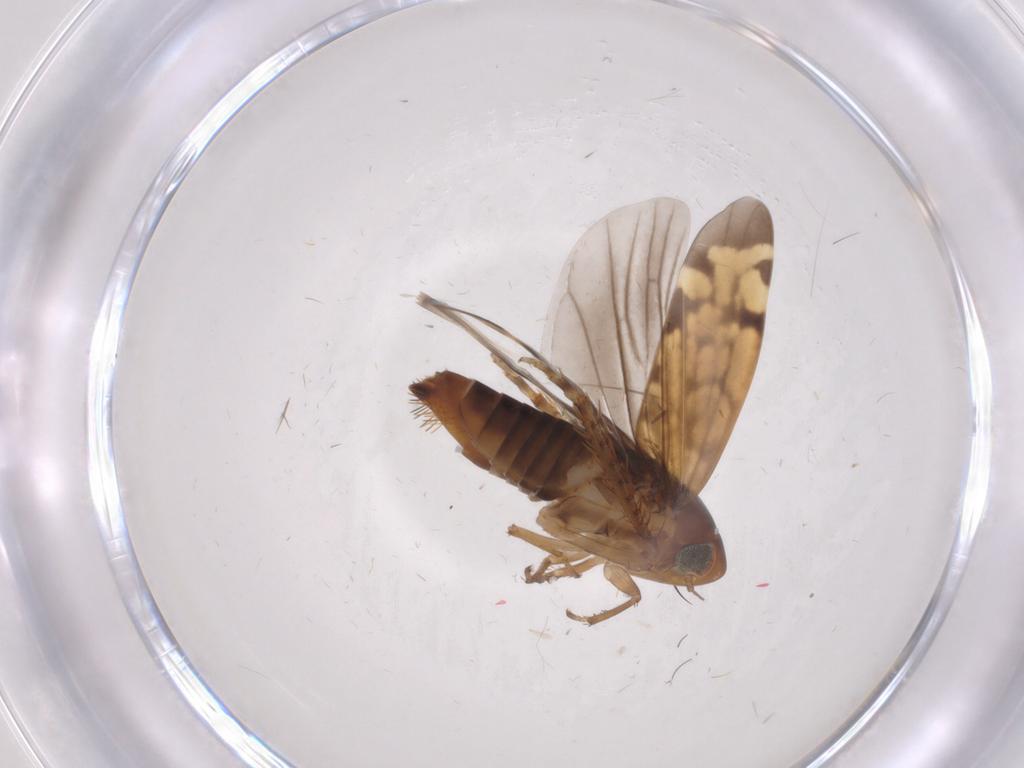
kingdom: Animalia
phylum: Arthropoda
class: Insecta
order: Hemiptera
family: Cicadellidae
